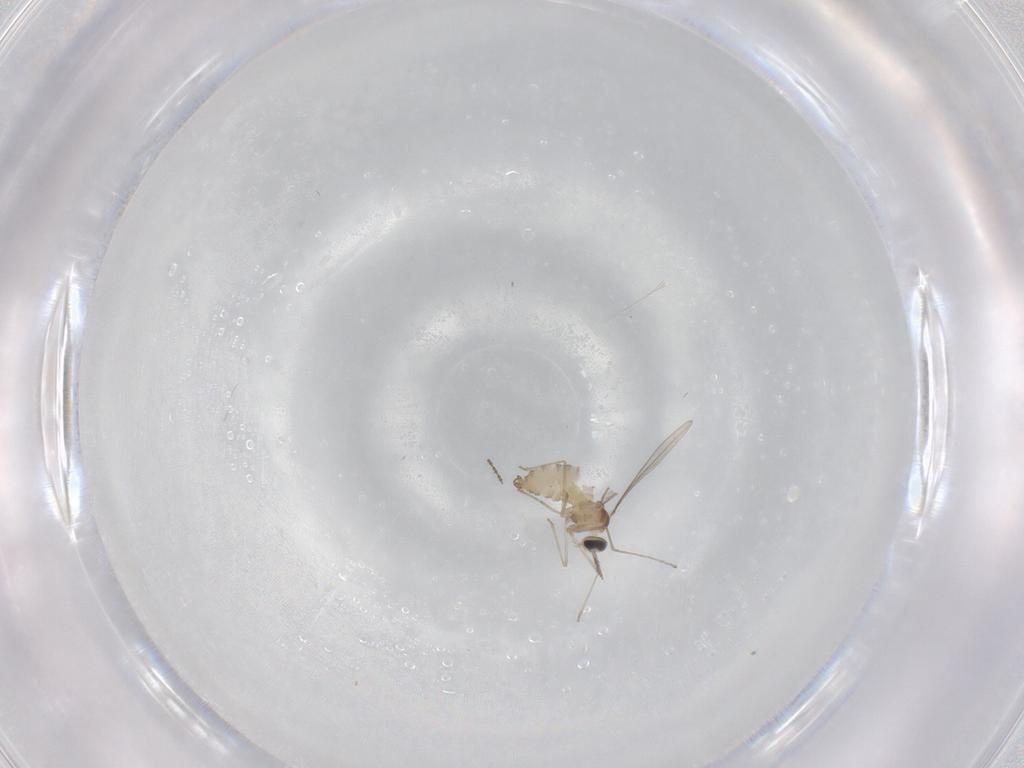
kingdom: Animalia
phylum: Arthropoda
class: Insecta
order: Diptera
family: Cecidomyiidae
